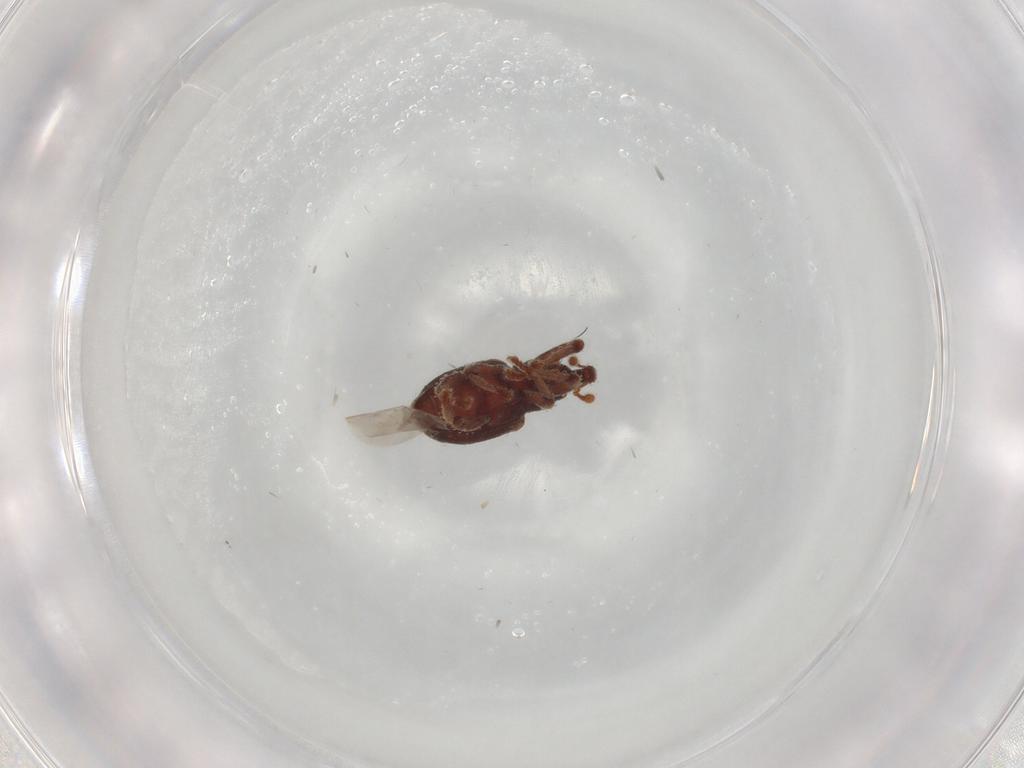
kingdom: Animalia
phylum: Arthropoda
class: Insecta
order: Coleoptera
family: Curculionidae
